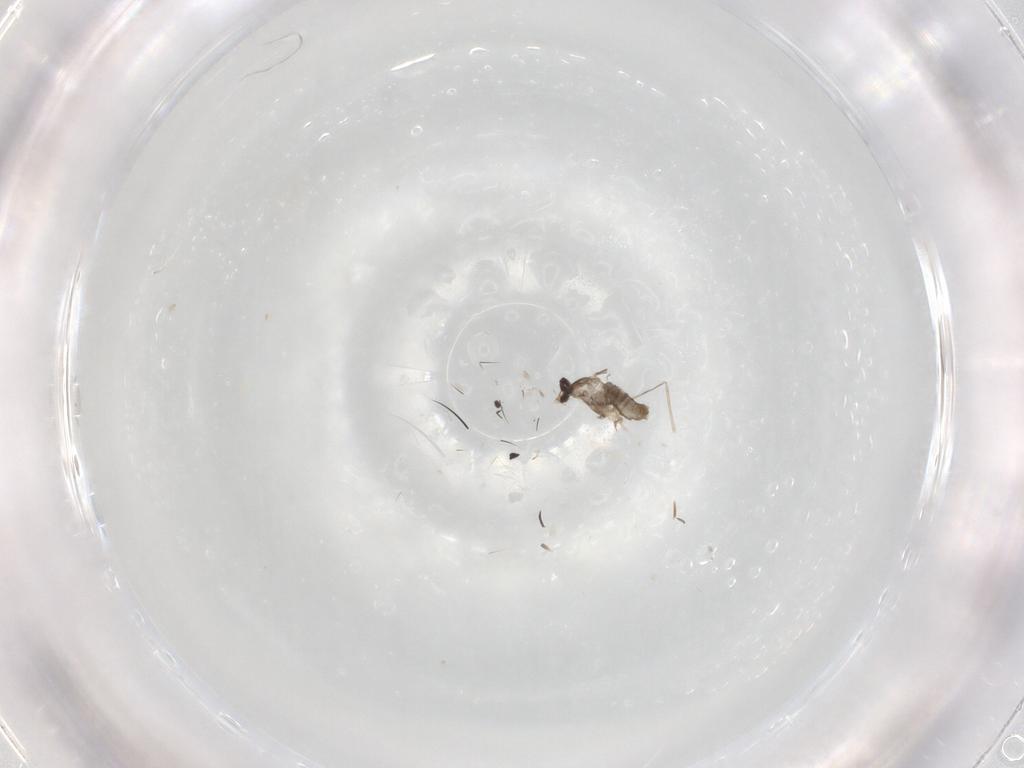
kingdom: Animalia
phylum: Arthropoda
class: Insecta
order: Diptera
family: Cecidomyiidae
